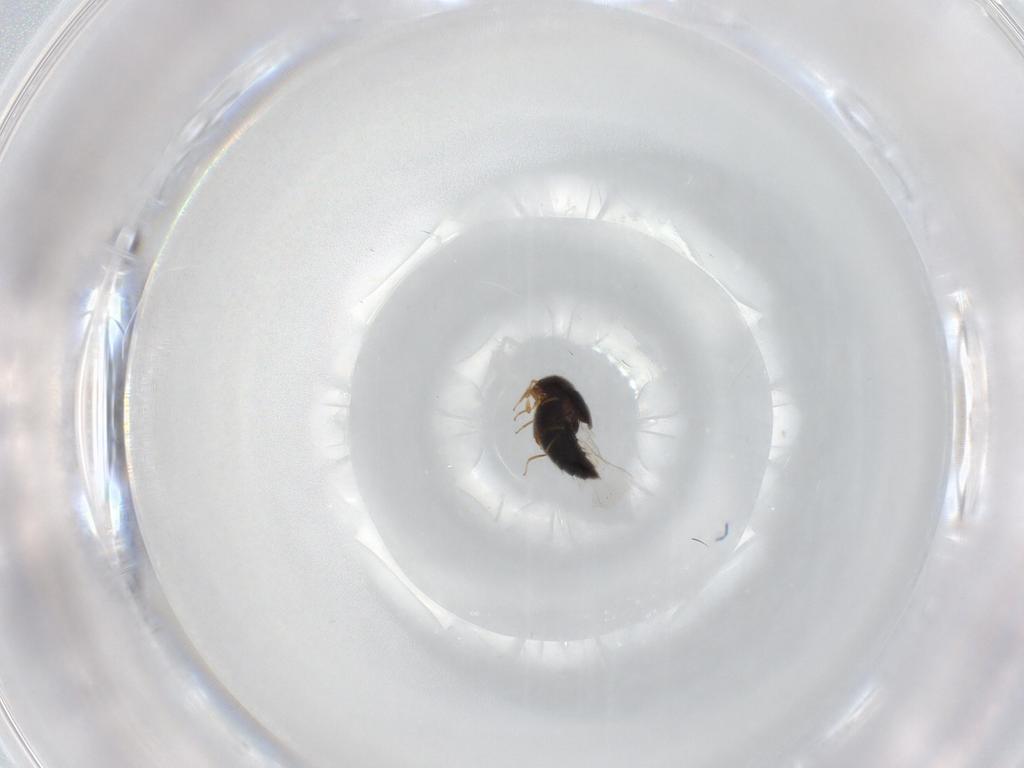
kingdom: Animalia
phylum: Arthropoda
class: Insecta
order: Coleoptera
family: Staphylinidae
